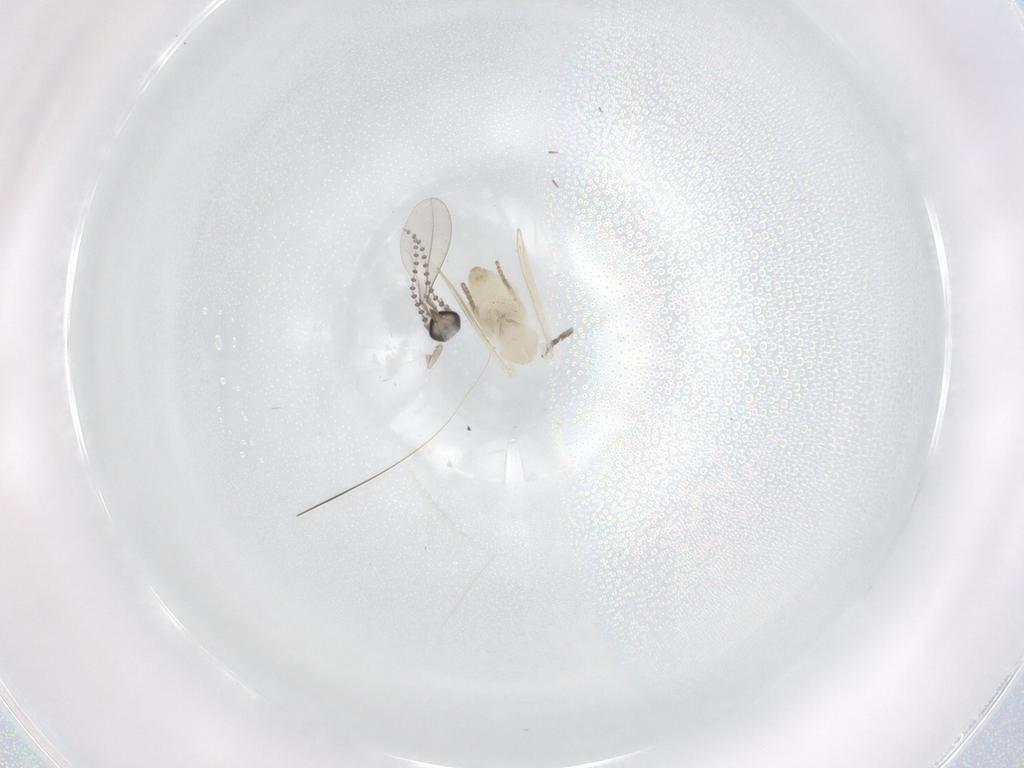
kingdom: Animalia
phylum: Arthropoda
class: Insecta
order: Diptera
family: Psychodidae
